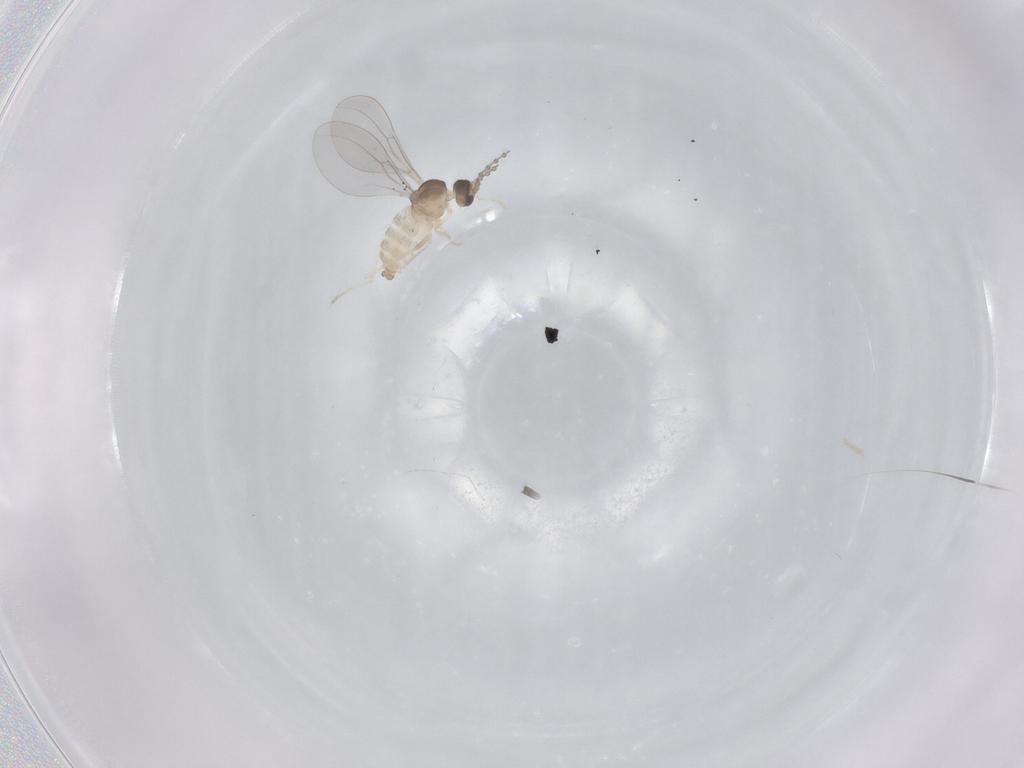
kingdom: Animalia
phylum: Arthropoda
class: Insecta
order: Diptera
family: Cecidomyiidae
